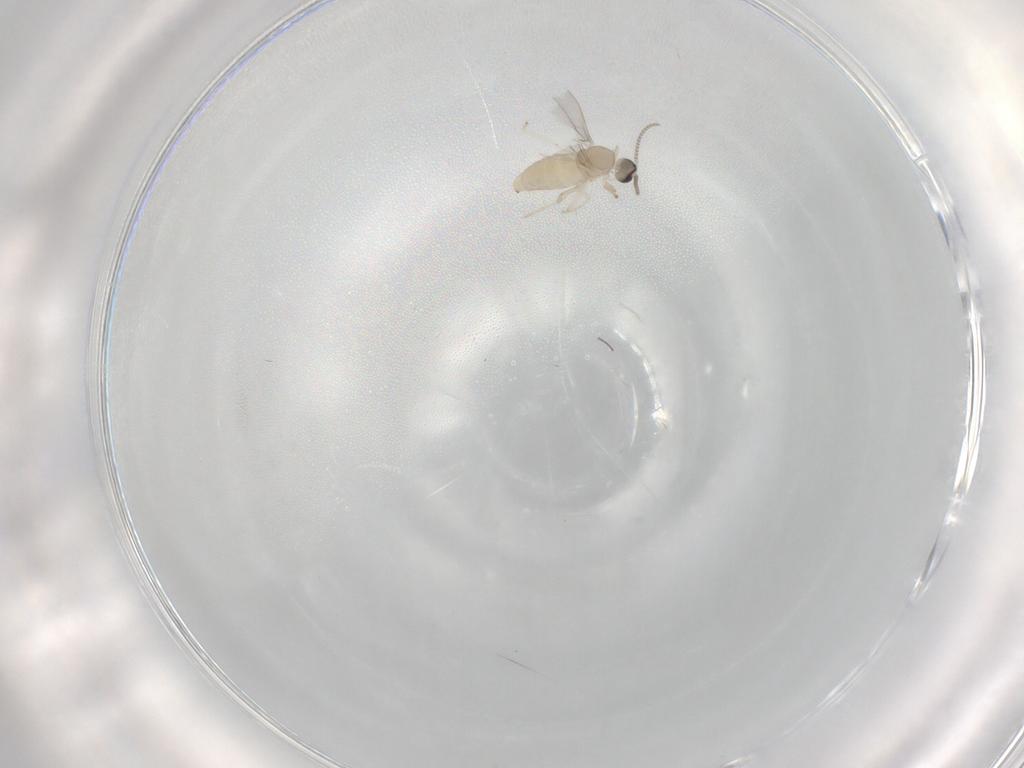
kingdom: Animalia
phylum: Arthropoda
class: Insecta
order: Diptera
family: Cecidomyiidae
